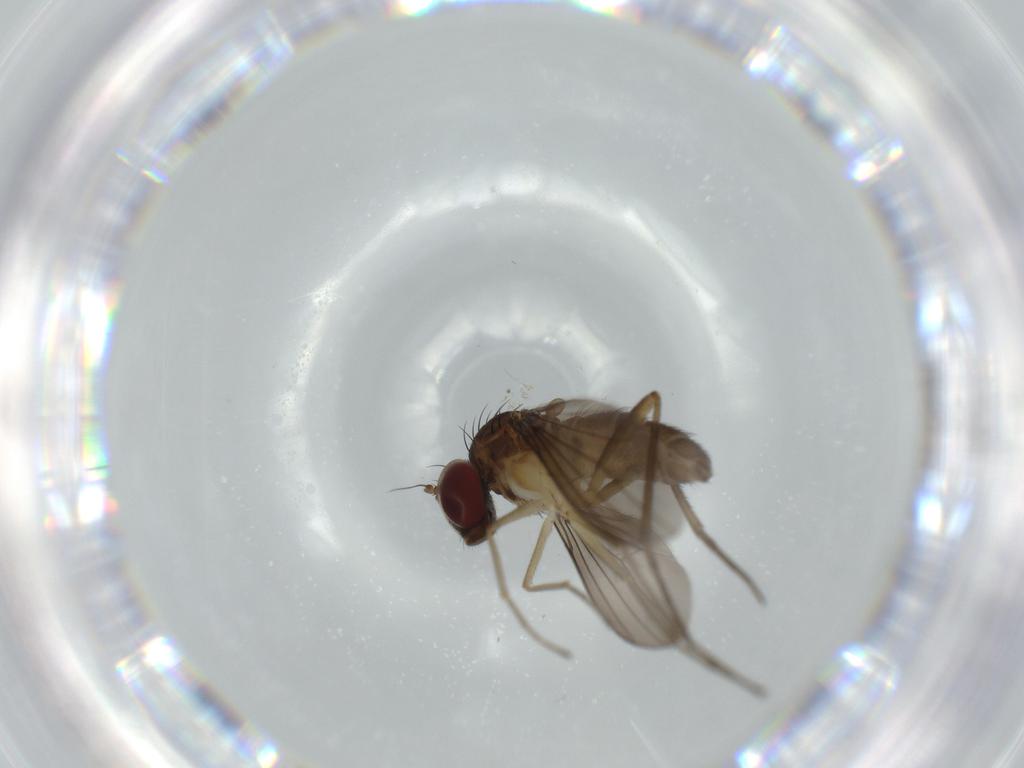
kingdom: Animalia
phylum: Arthropoda
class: Insecta
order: Diptera
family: Dolichopodidae
